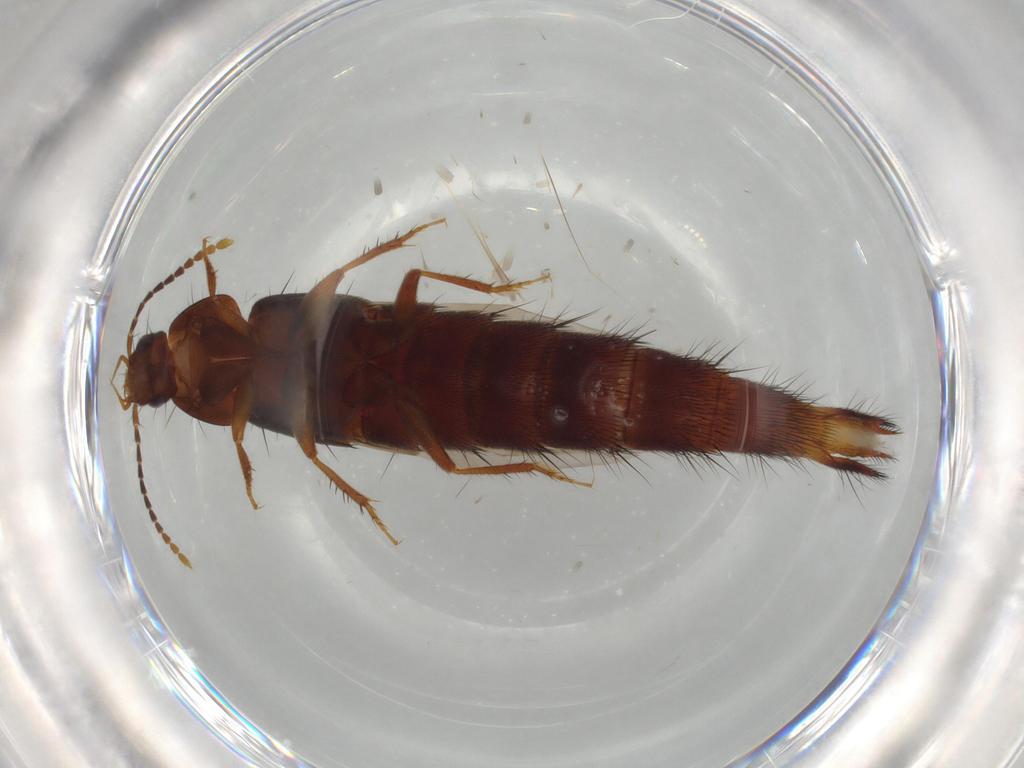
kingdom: Animalia
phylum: Arthropoda
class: Insecta
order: Coleoptera
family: Staphylinidae
